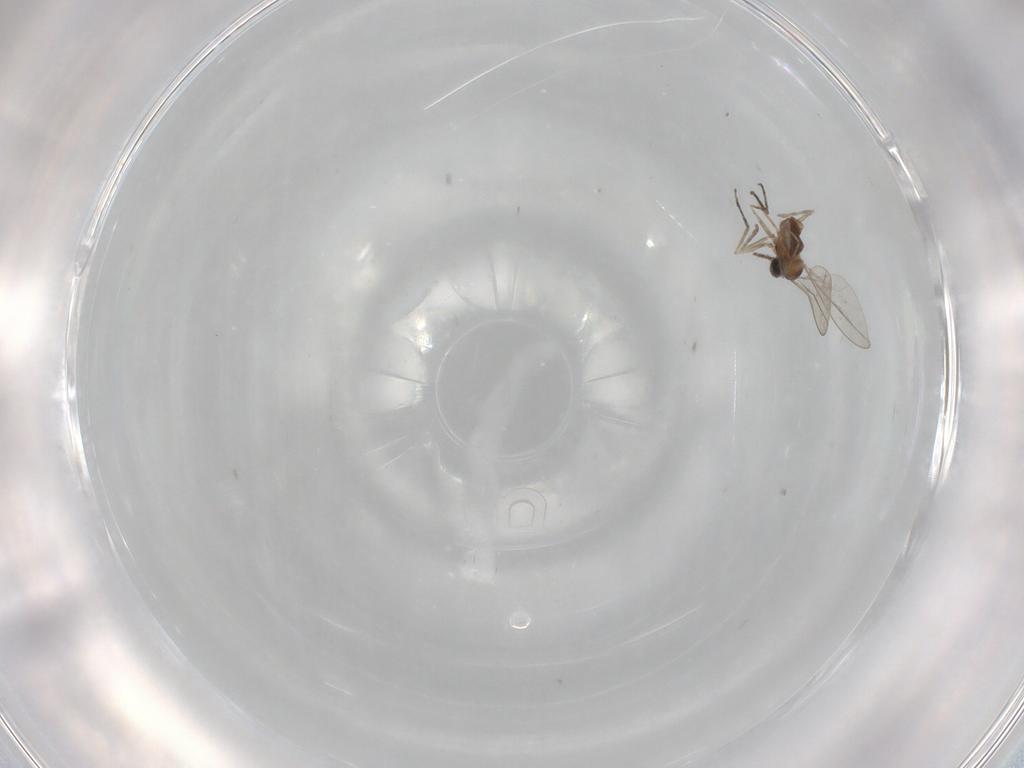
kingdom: Animalia
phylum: Arthropoda
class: Insecta
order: Diptera
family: Cecidomyiidae
